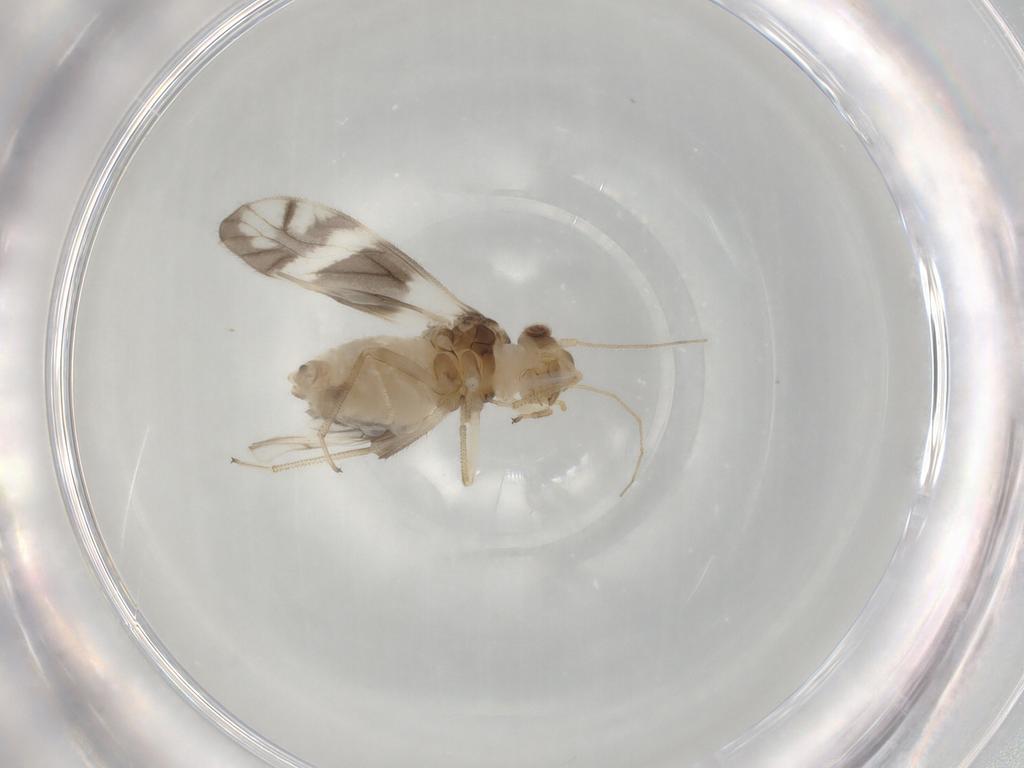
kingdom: Animalia
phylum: Arthropoda
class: Insecta
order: Psocodea
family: Caeciliusidae
